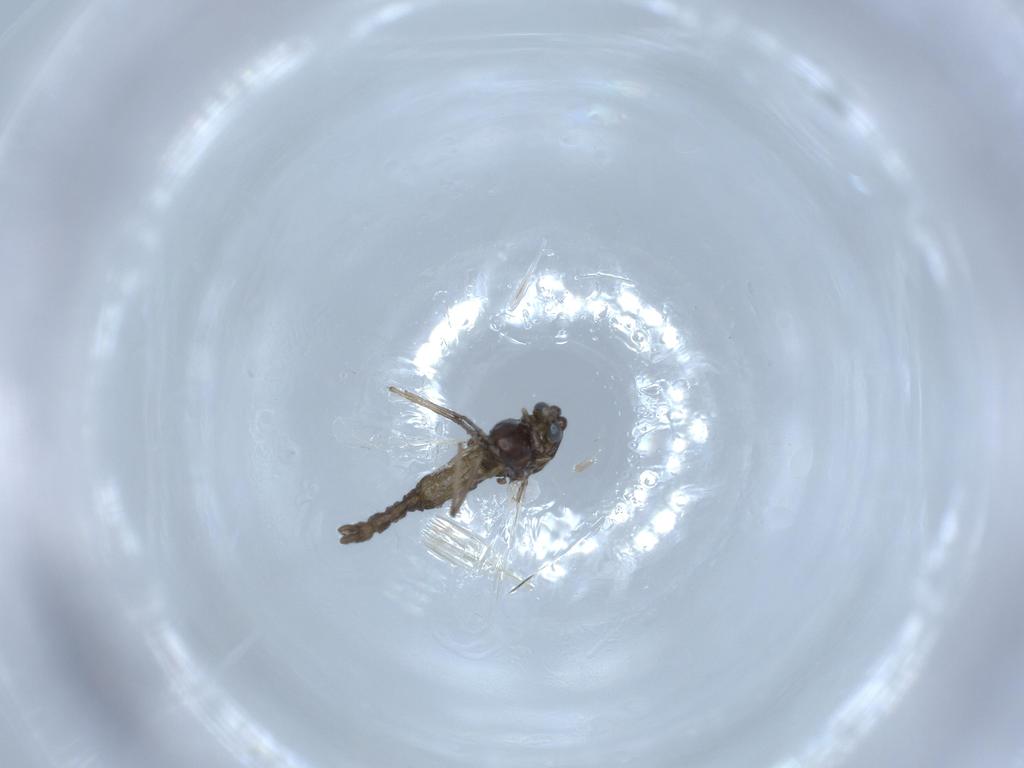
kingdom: Animalia
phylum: Arthropoda
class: Insecta
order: Diptera
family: Chironomidae
